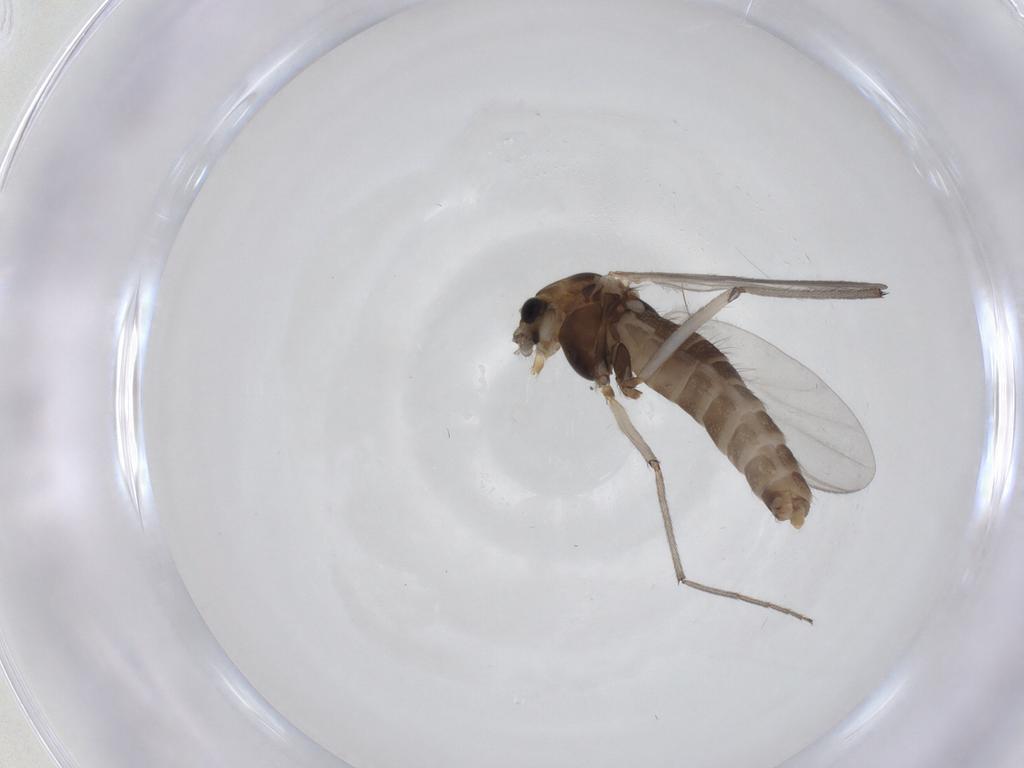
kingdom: Animalia
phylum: Arthropoda
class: Insecta
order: Diptera
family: Chironomidae
